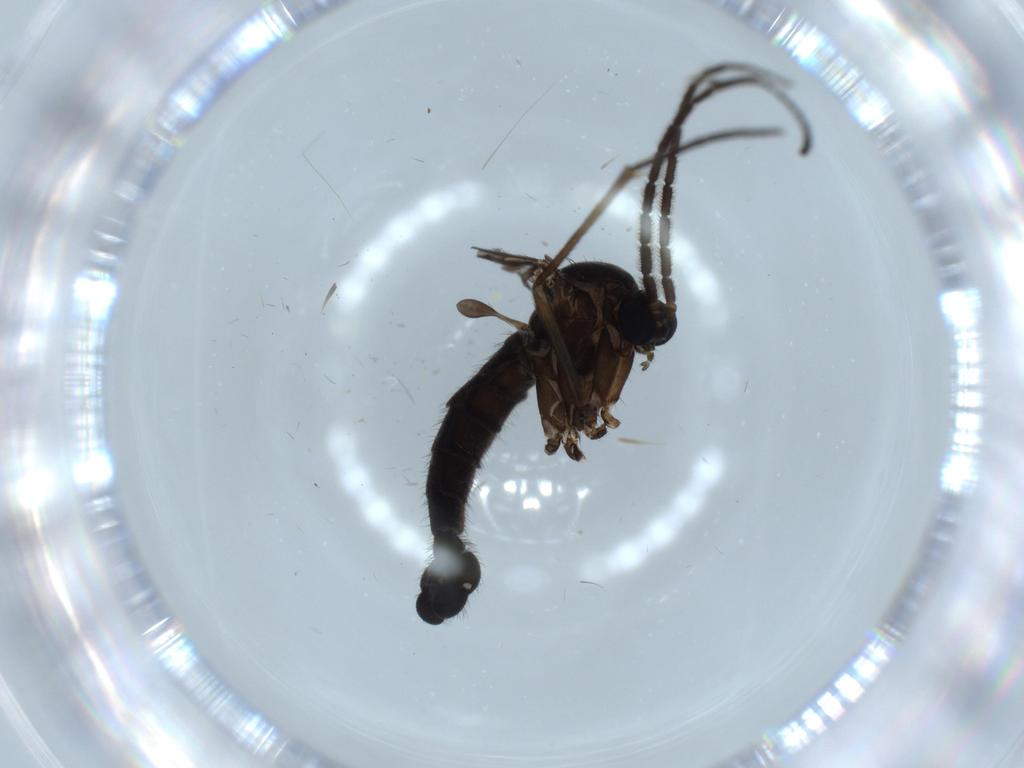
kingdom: Animalia
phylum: Arthropoda
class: Insecta
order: Diptera
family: Sciaridae
